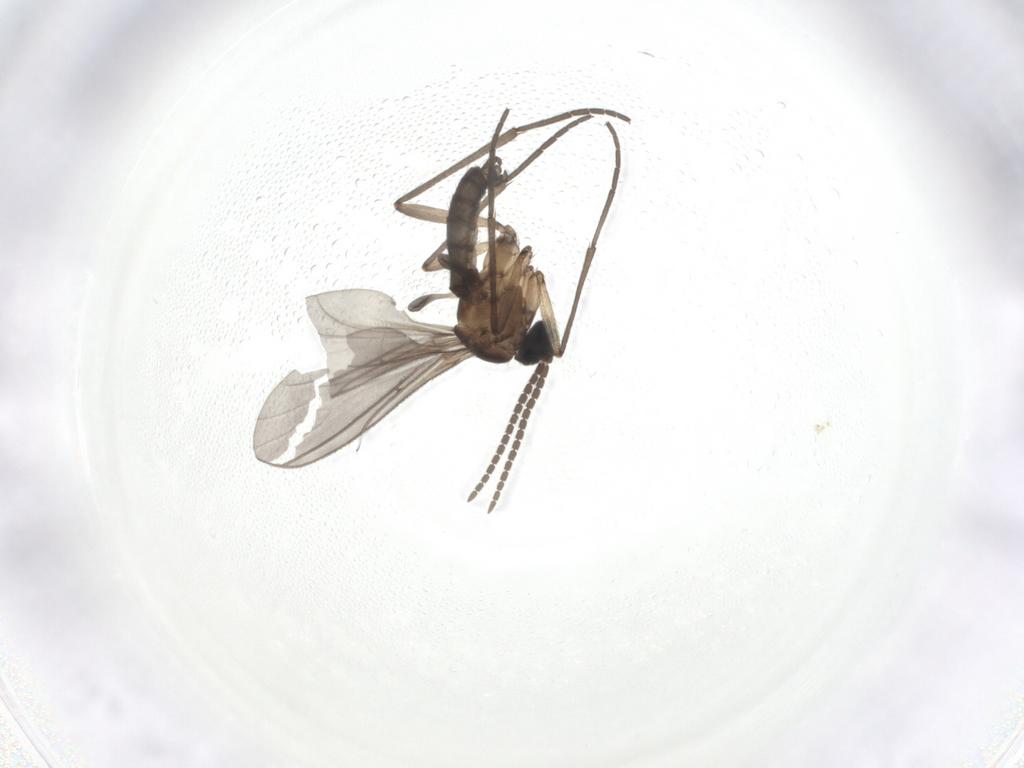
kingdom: Animalia
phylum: Arthropoda
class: Insecta
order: Diptera
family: Sciaridae
